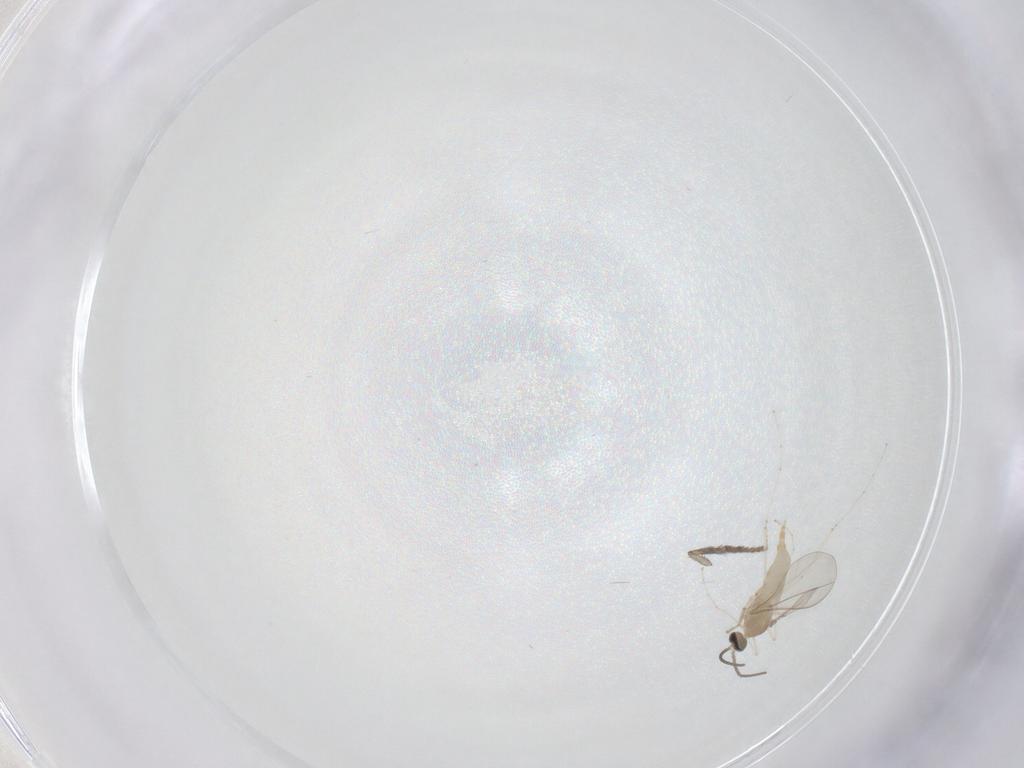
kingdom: Animalia
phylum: Arthropoda
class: Insecta
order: Diptera
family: Cecidomyiidae
